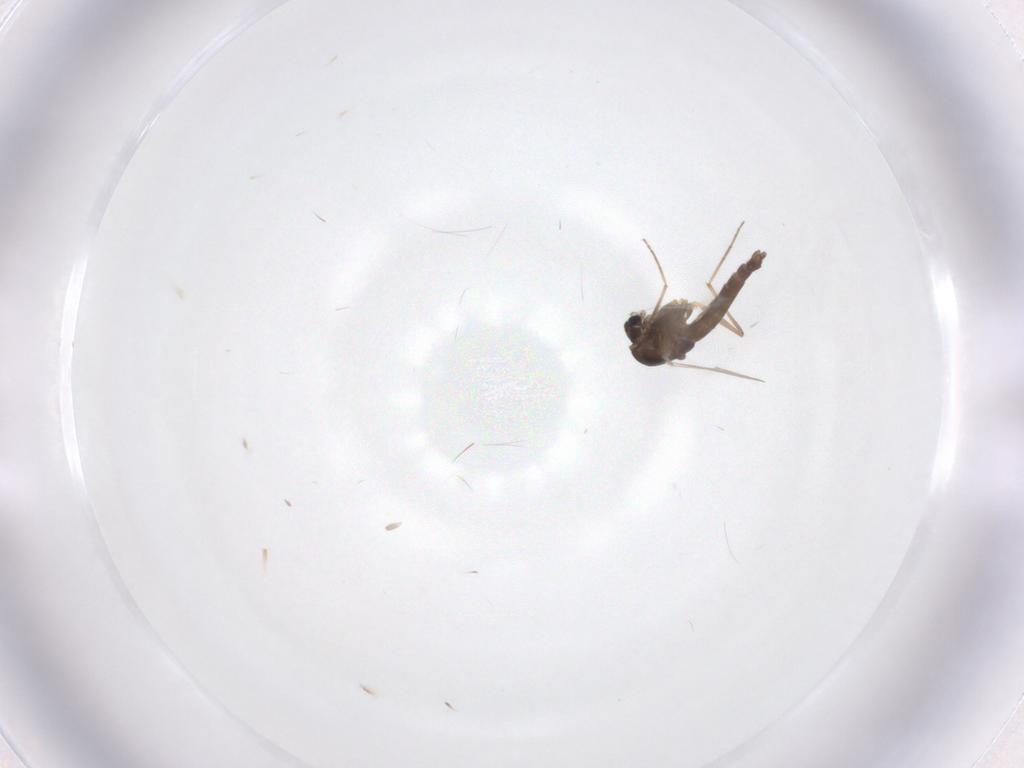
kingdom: Animalia
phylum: Arthropoda
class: Insecta
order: Diptera
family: Chironomidae
